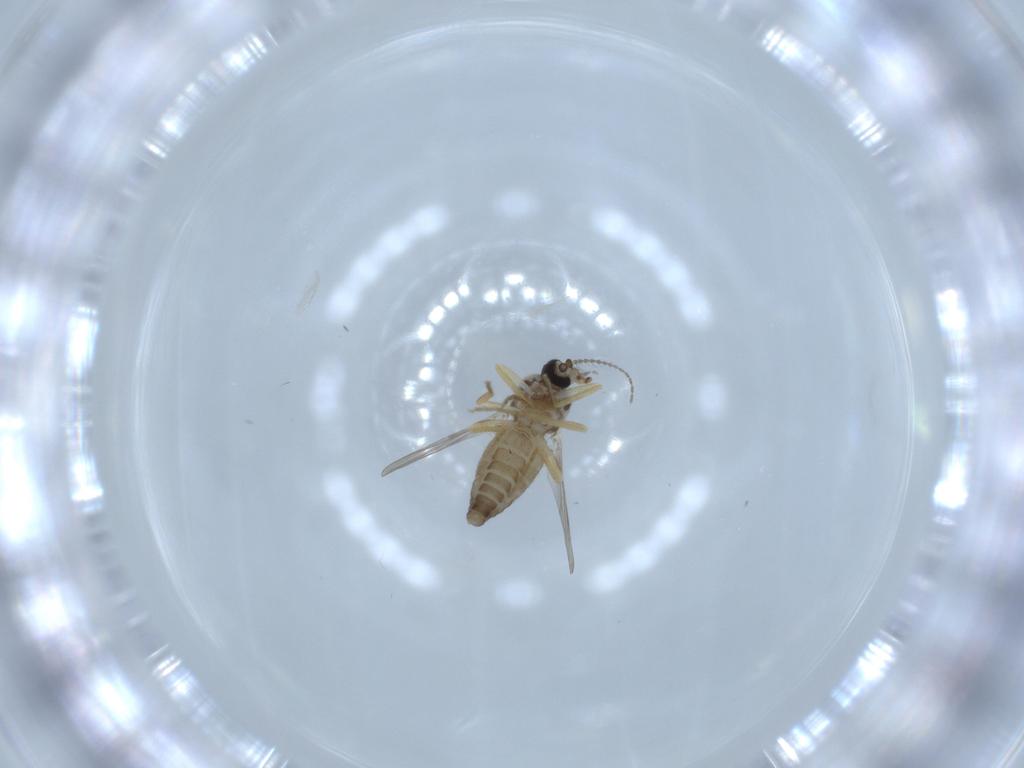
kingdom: Animalia
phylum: Arthropoda
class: Insecta
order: Diptera
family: Ceratopogonidae
